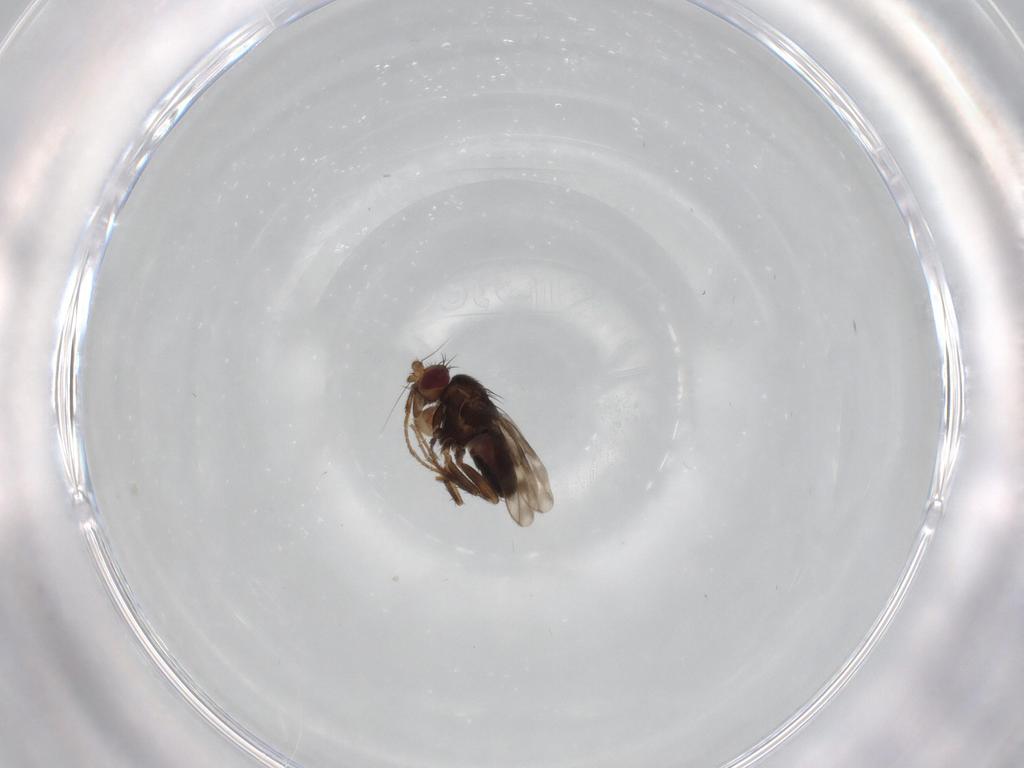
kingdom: Animalia
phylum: Arthropoda
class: Insecta
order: Diptera
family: Sphaeroceridae
